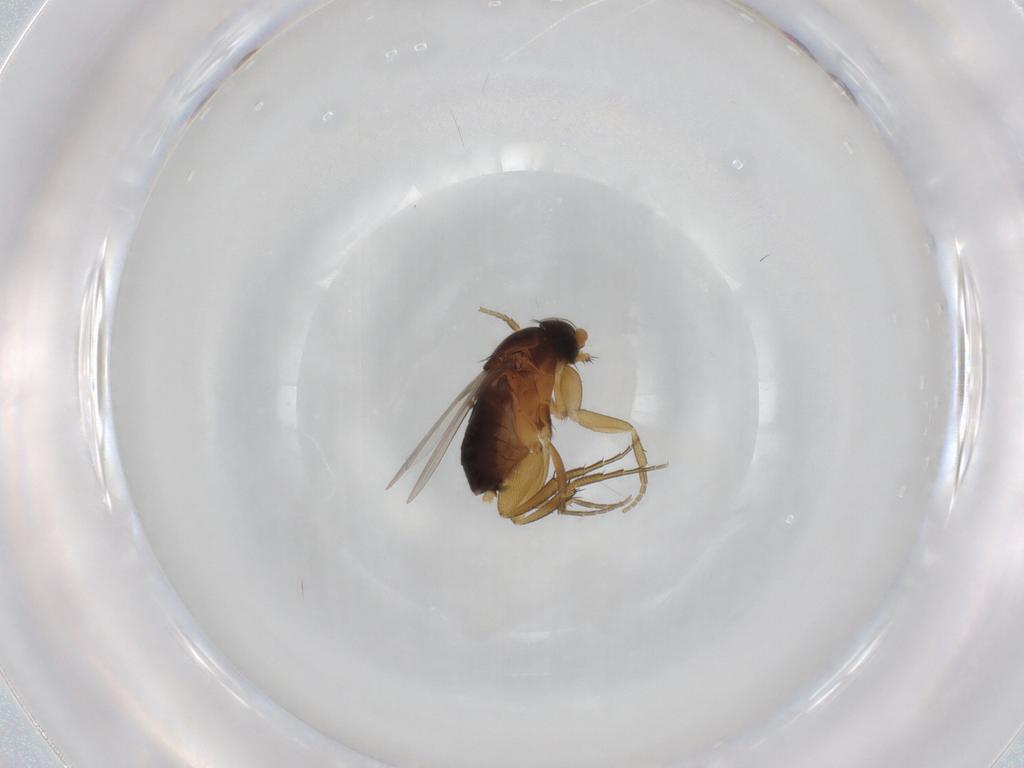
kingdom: Animalia
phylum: Arthropoda
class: Insecta
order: Diptera
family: Phoridae
